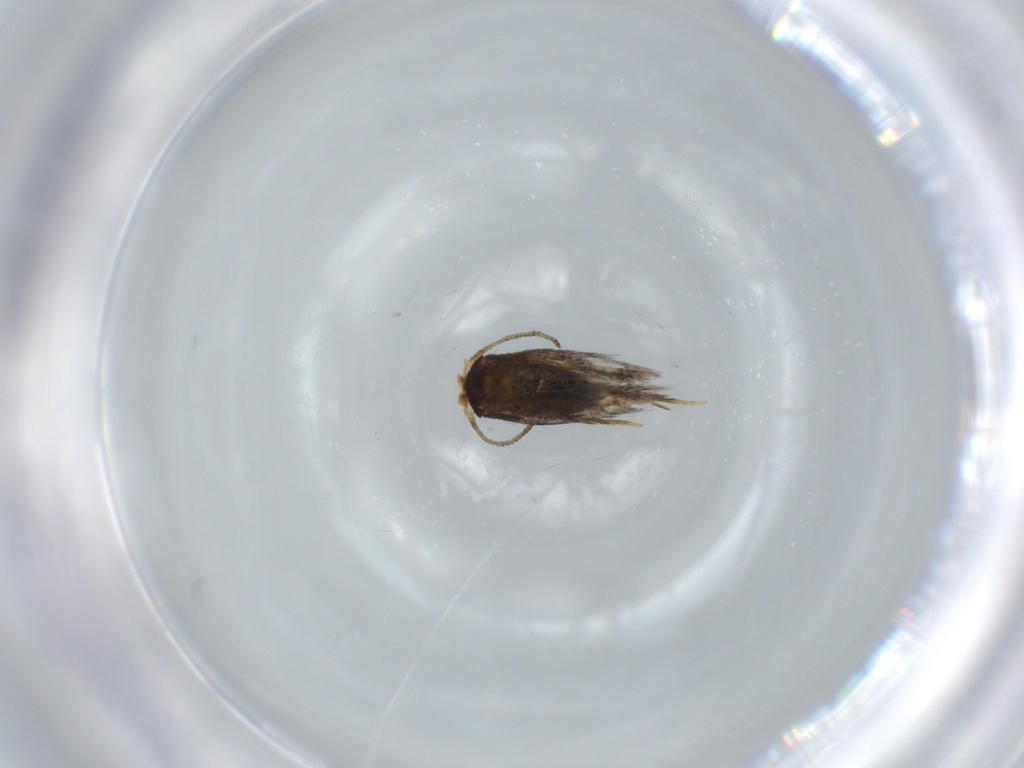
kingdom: Animalia
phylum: Arthropoda
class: Insecta
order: Lepidoptera
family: Nepticulidae
